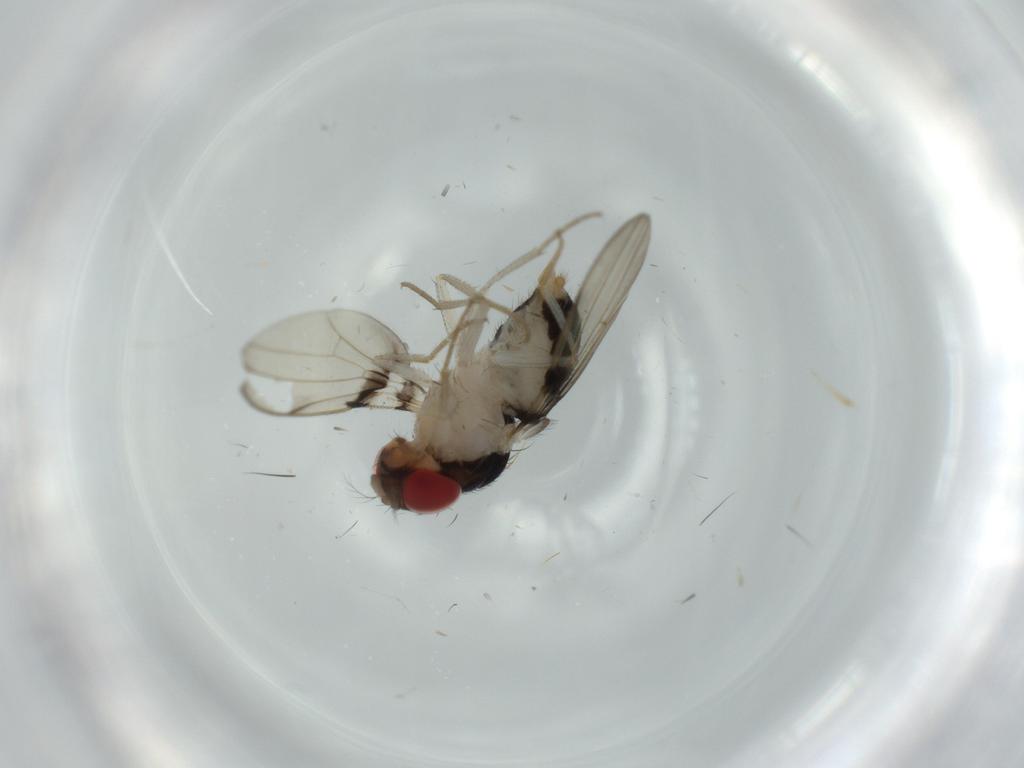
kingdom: Animalia
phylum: Arthropoda
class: Insecta
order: Diptera
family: Drosophilidae
